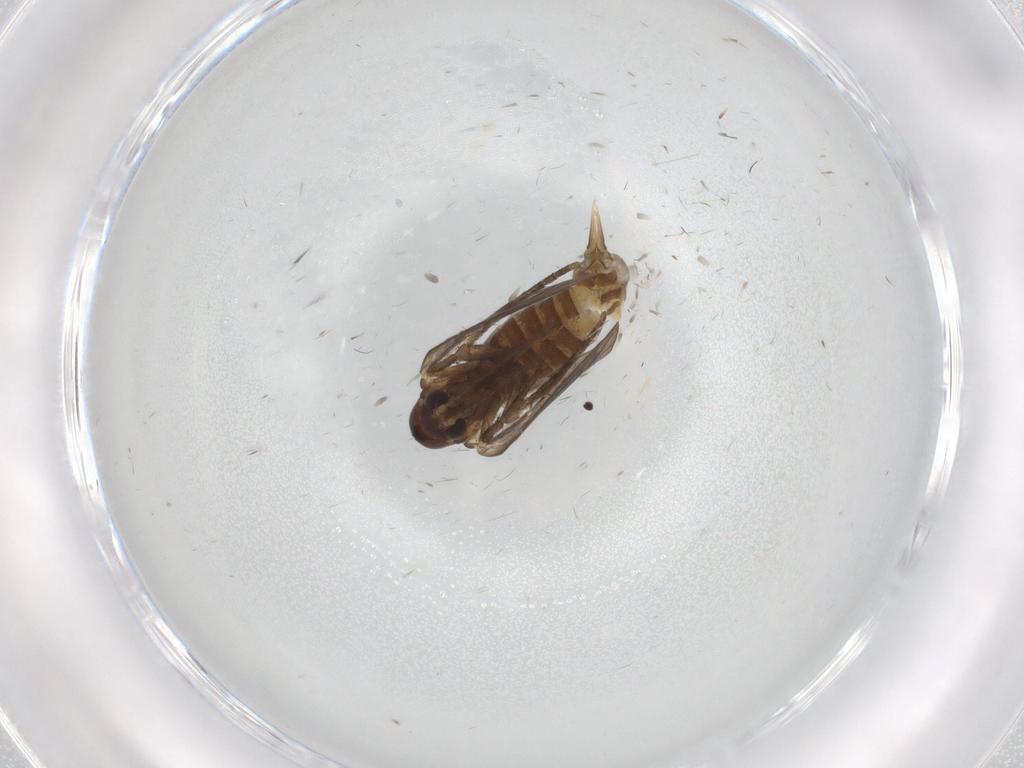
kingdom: Animalia
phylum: Arthropoda
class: Insecta
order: Diptera
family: Psychodidae
